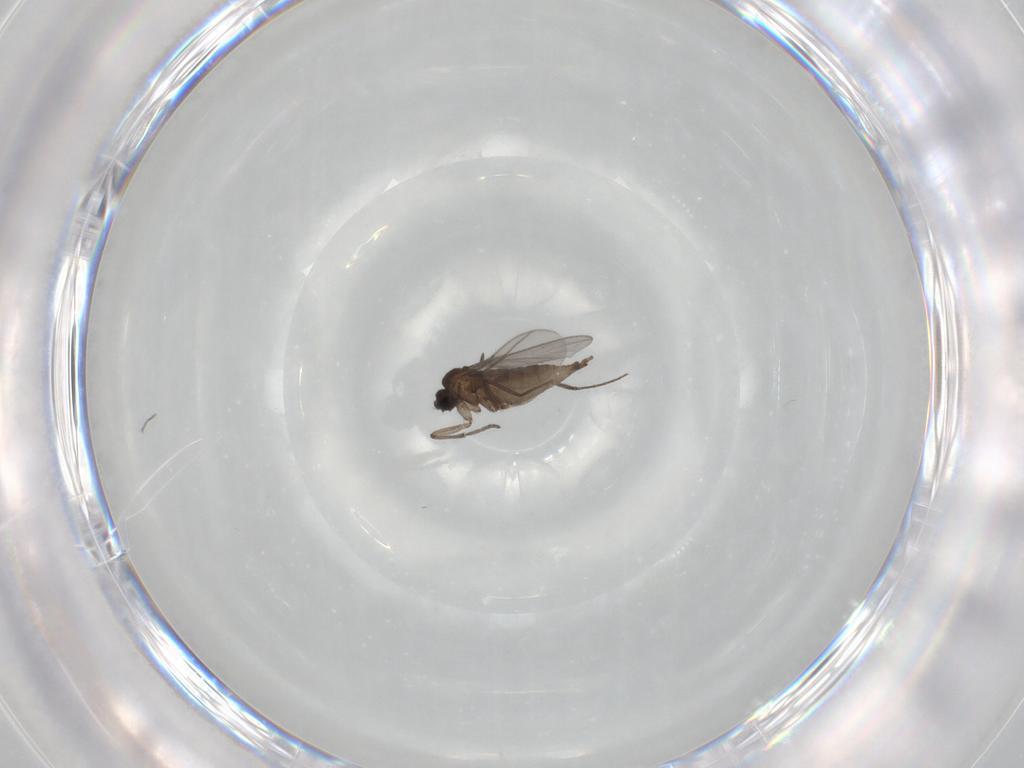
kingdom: Animalia
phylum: Arthropoda
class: Insecta
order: Diptera
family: Sciaridae
